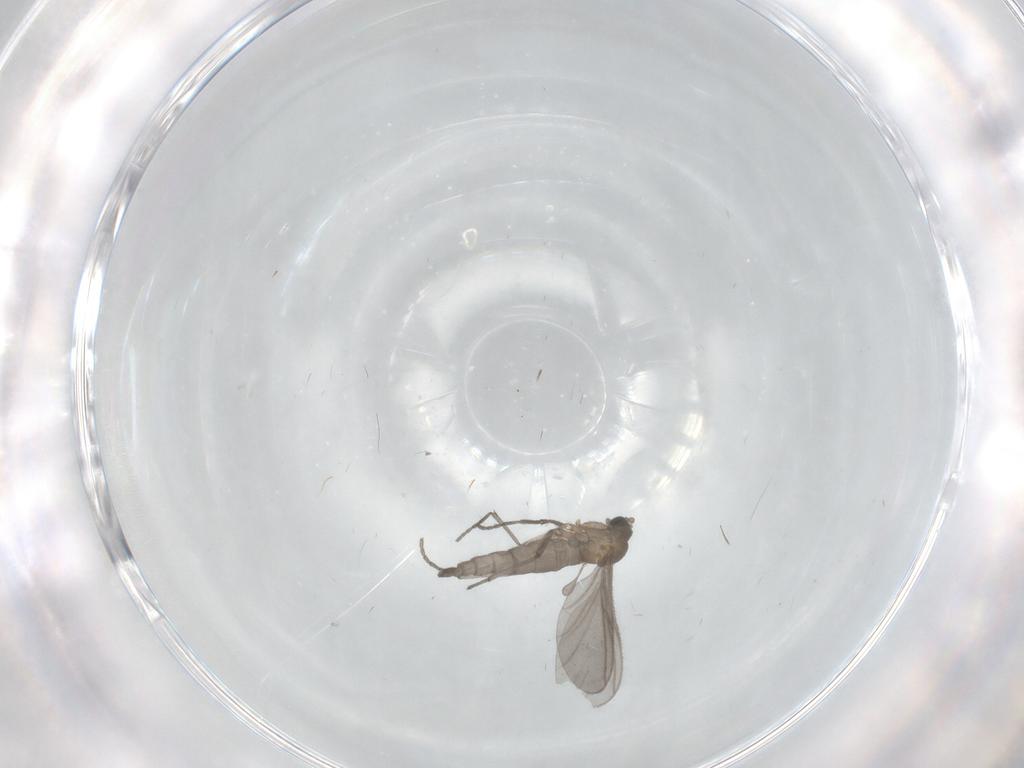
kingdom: Animalia
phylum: Arthropoda
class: Insecta
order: Diptera
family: Sciaridae
